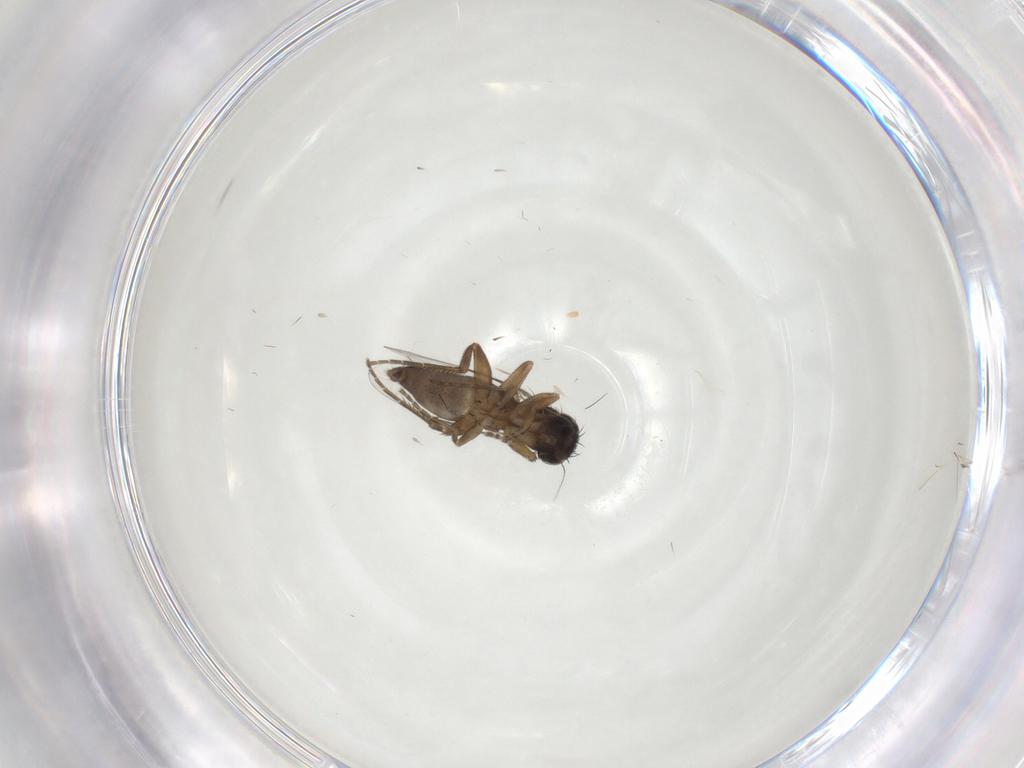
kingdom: Animalia
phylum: Arthropoda
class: Insecta
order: Diptera
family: Phoridae
